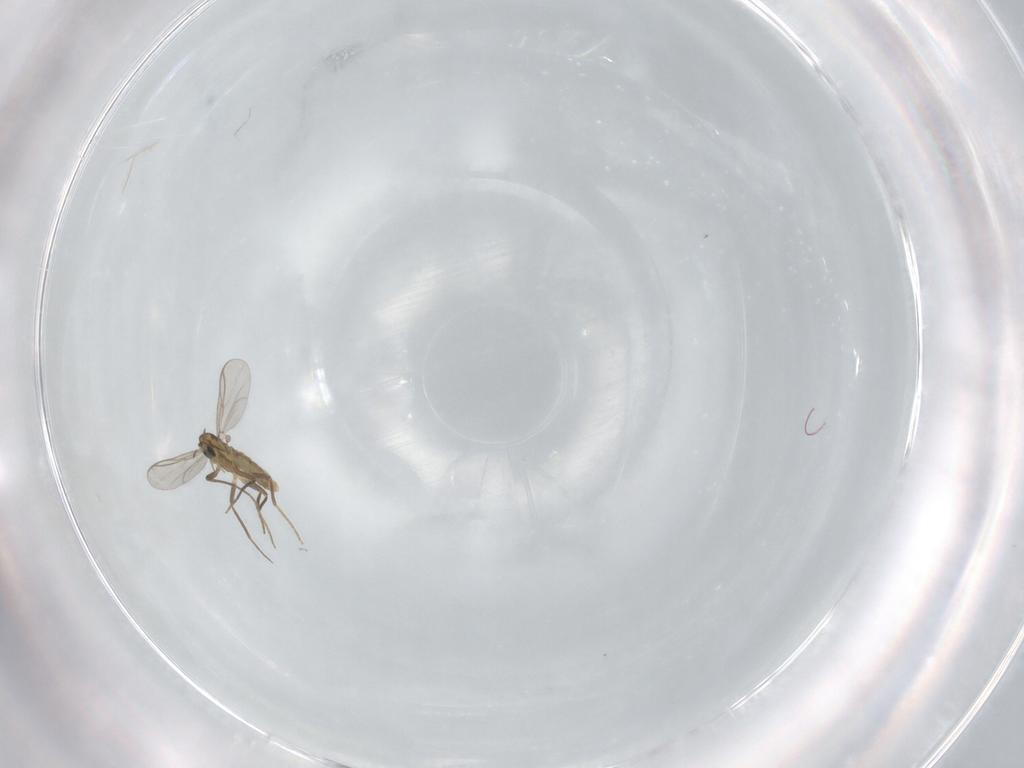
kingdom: Animalia
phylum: Arthropoda
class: Insecta
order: Diptera
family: Chironomidae
